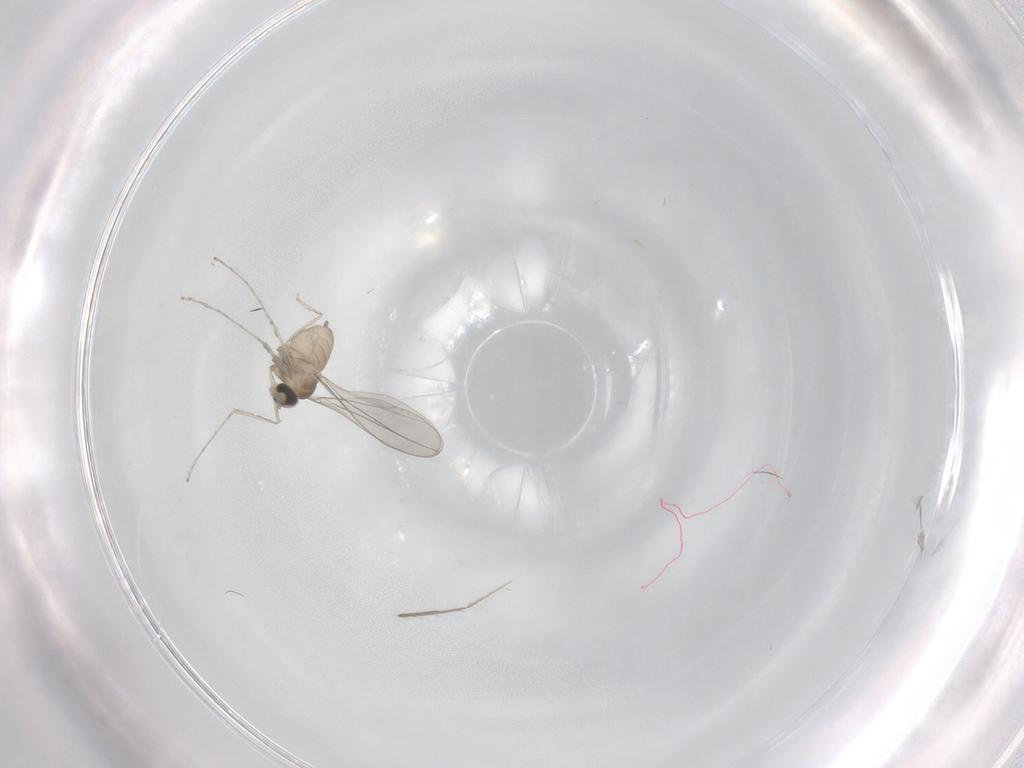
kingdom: Animalia
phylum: Arthropoda
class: Insecta
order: Diptera
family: Cecidomyiidae
